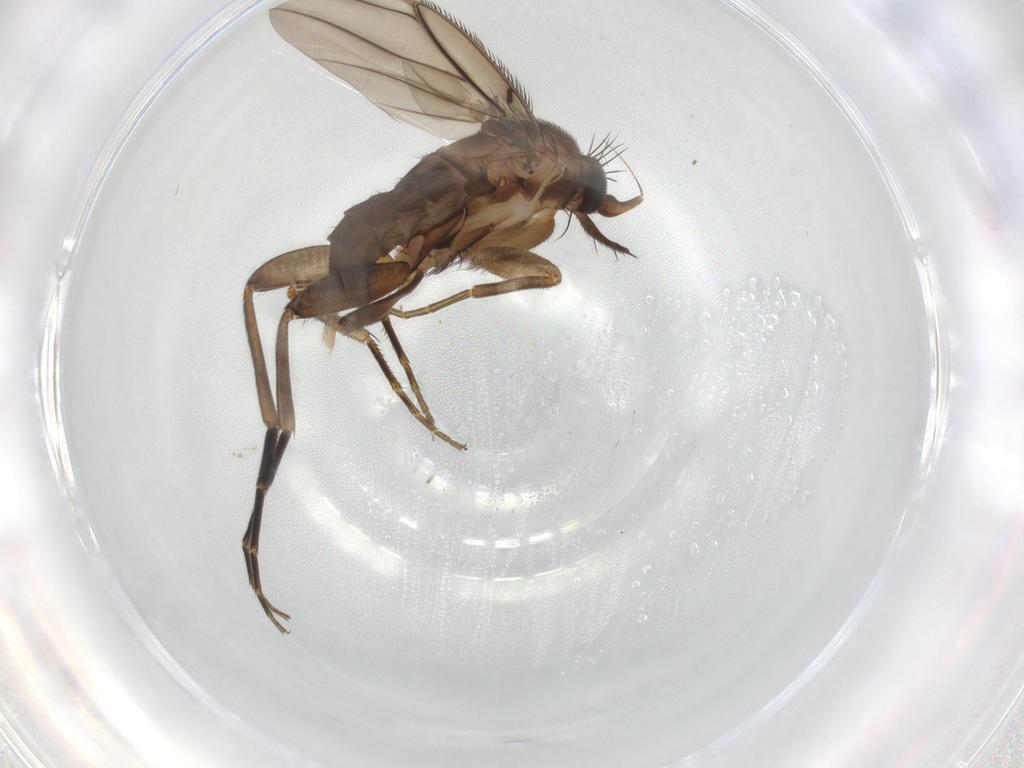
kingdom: Animalia
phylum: Arthropoda
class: Insecta
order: Diptera
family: Phoridae
